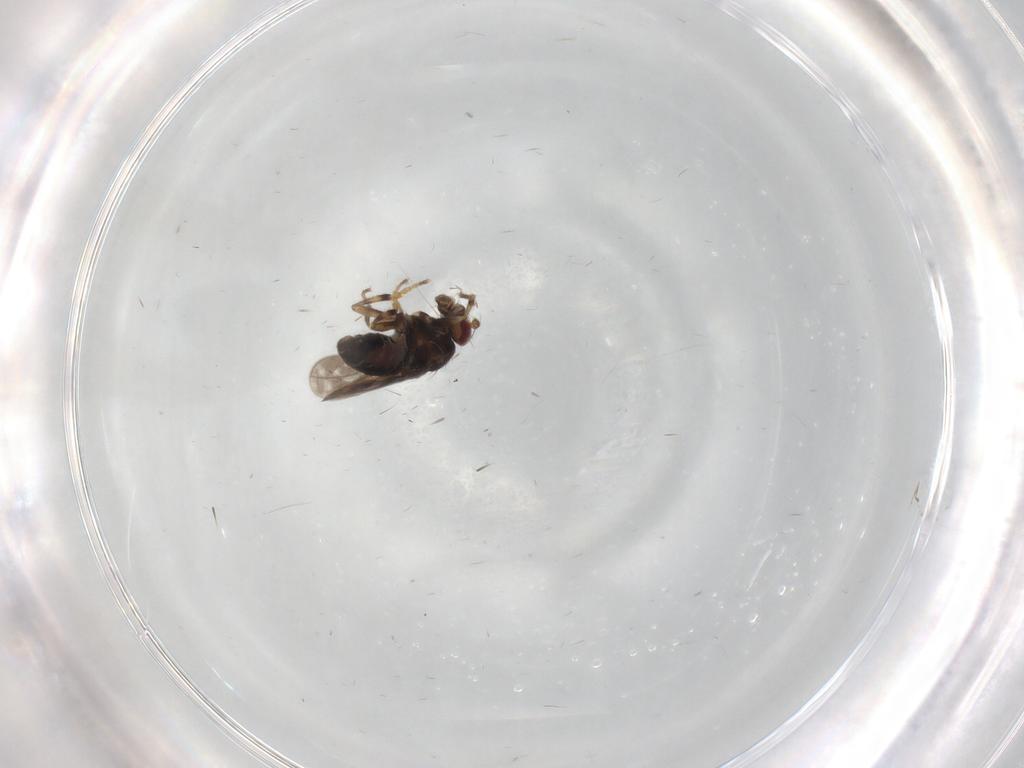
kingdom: Animalia
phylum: Arthropoda
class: Insecta
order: Diptera
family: Sphaeroceridae
